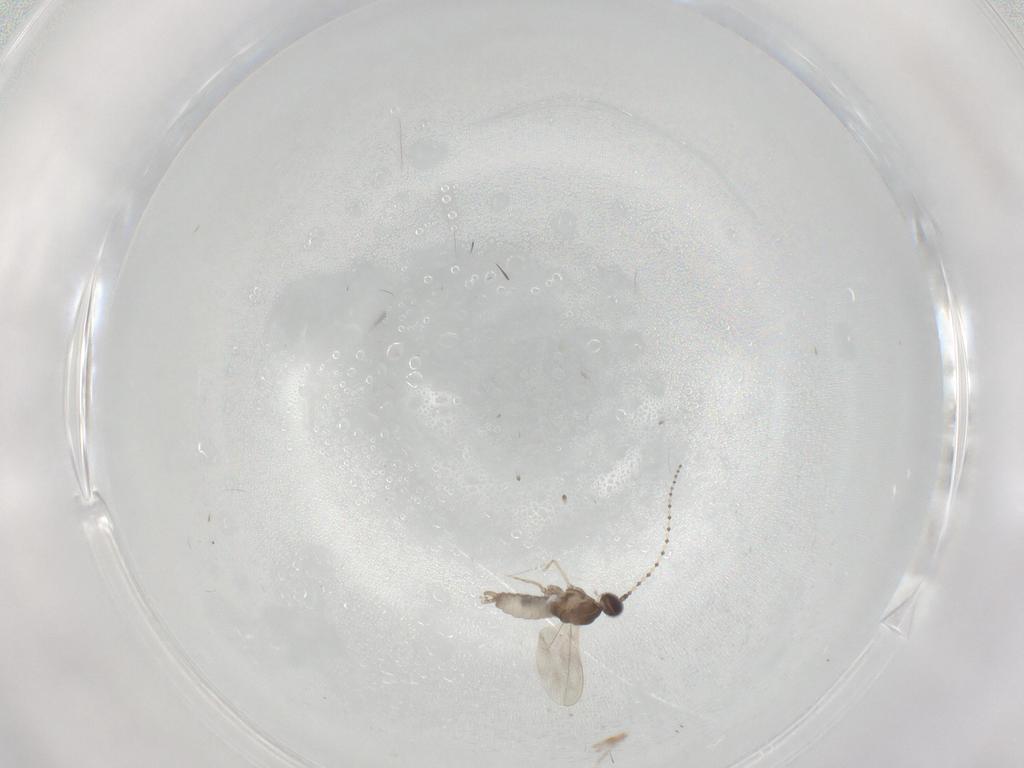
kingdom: Animalia
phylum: Arthropoda
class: Insecta
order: Diptera
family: Cecidomyiidae
